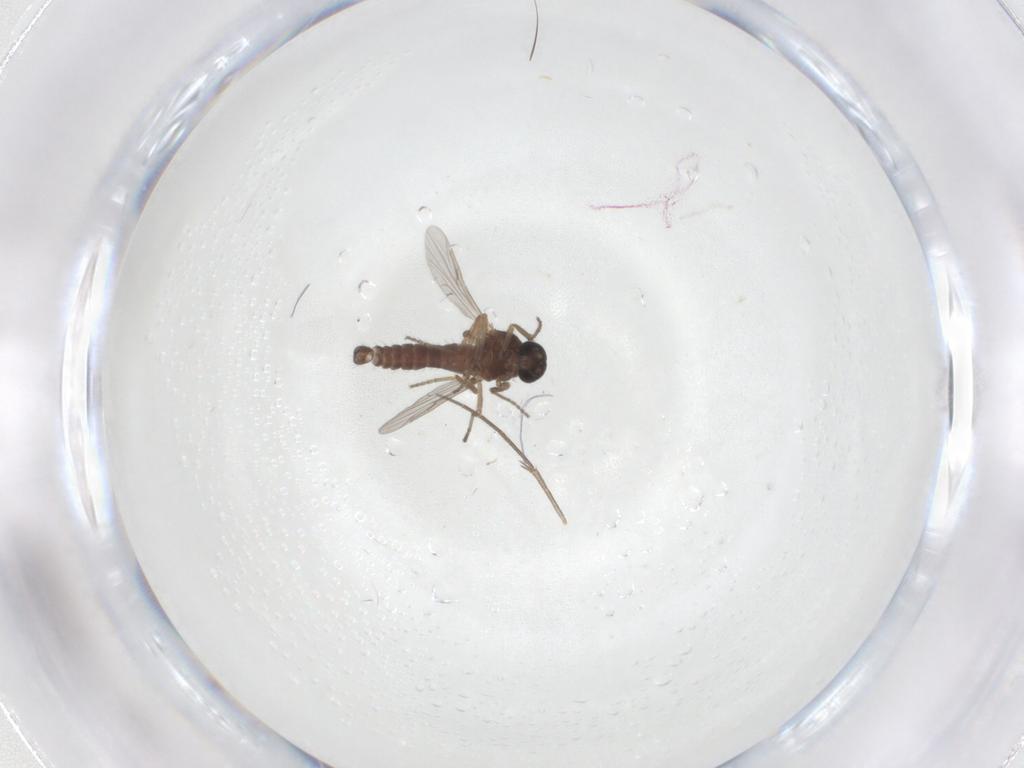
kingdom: Animalia
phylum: Arthropoda
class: Insecta
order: Diptera
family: Ceratopogonidae
